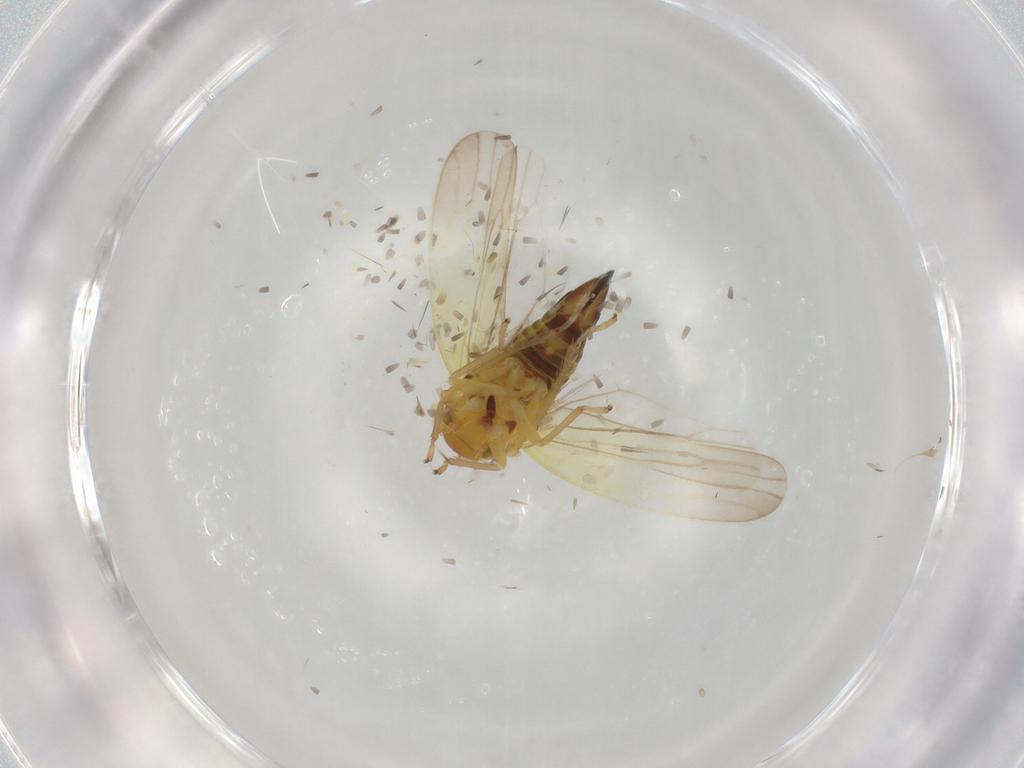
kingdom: Animalia
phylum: Arthropoda
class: Insecta
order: Hemiptera
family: Cicadellidae
